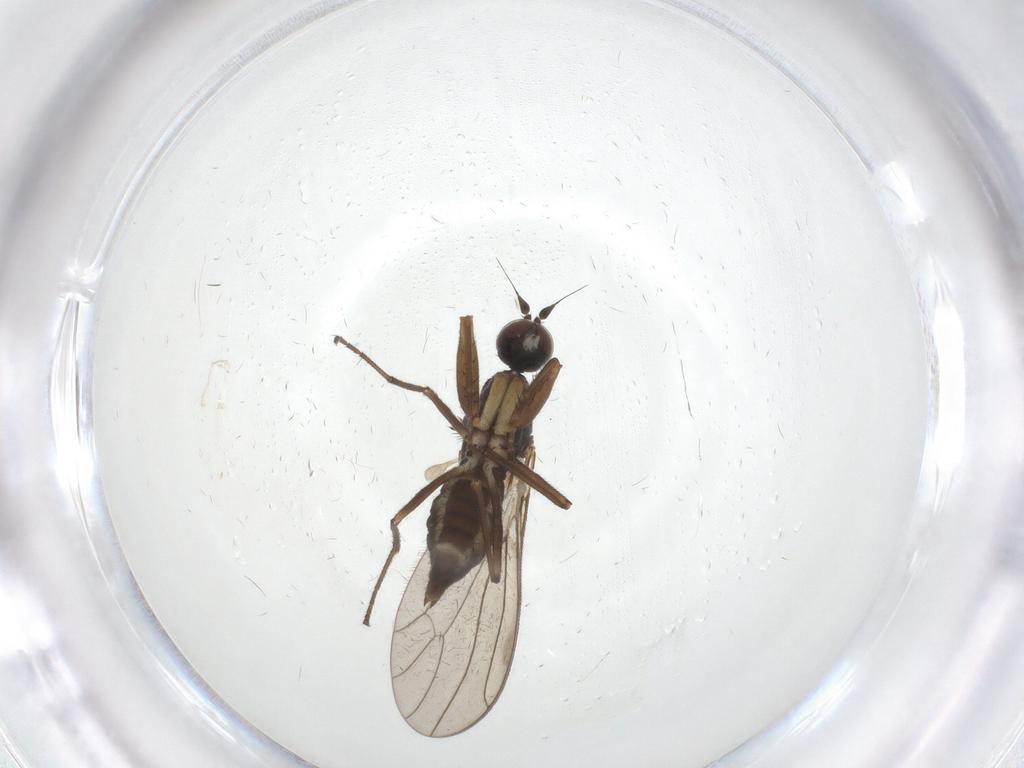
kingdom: Animalia
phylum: Arthropoda
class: Insecta
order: Diptera
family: Empididae
